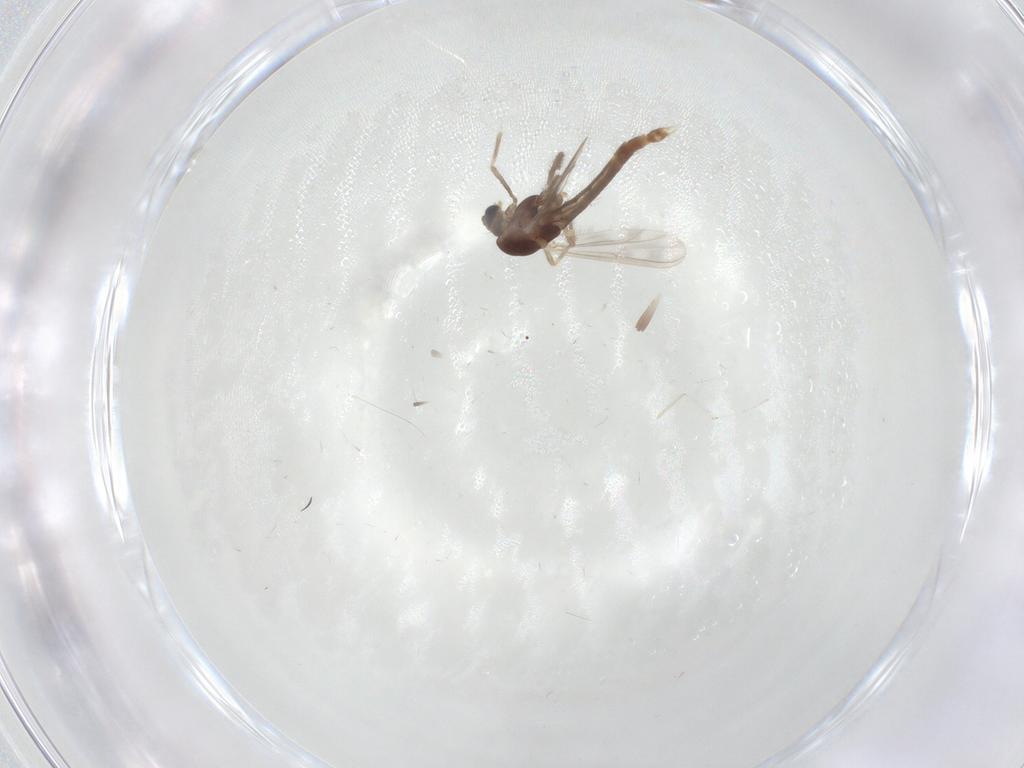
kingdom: Animalia
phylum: Arthropoda
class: Insecta
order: Diptera
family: Chironomidae
